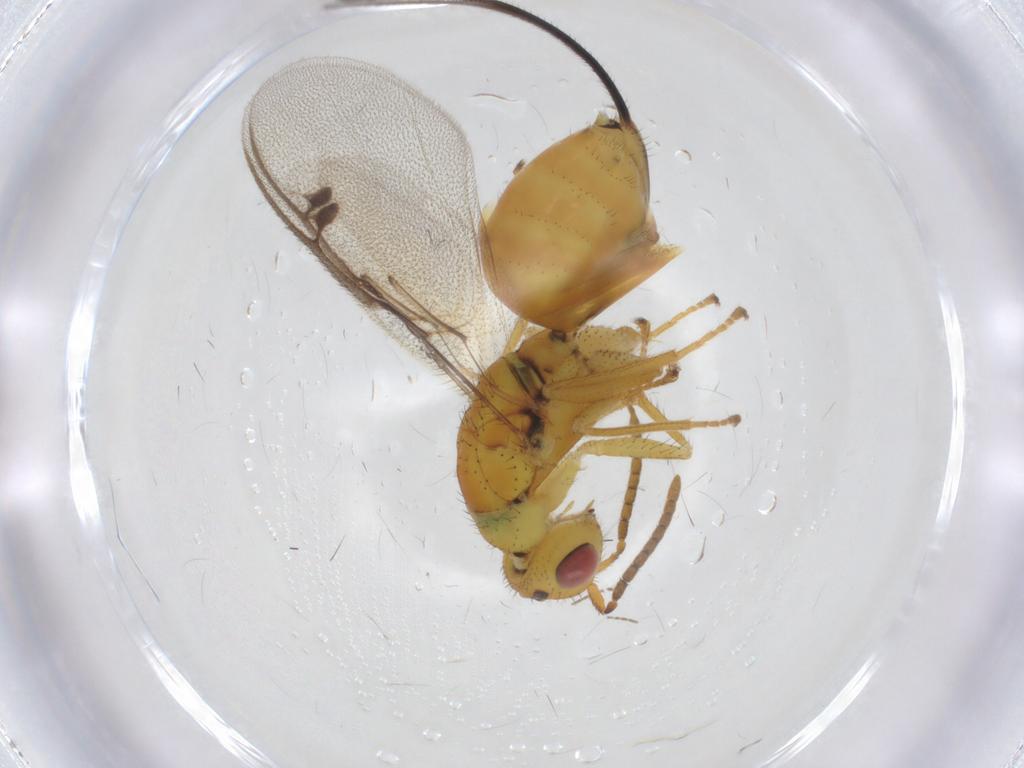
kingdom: Animalia
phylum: Arthropoda
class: Insecta
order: Hymenoptera
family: Megastigmidae
